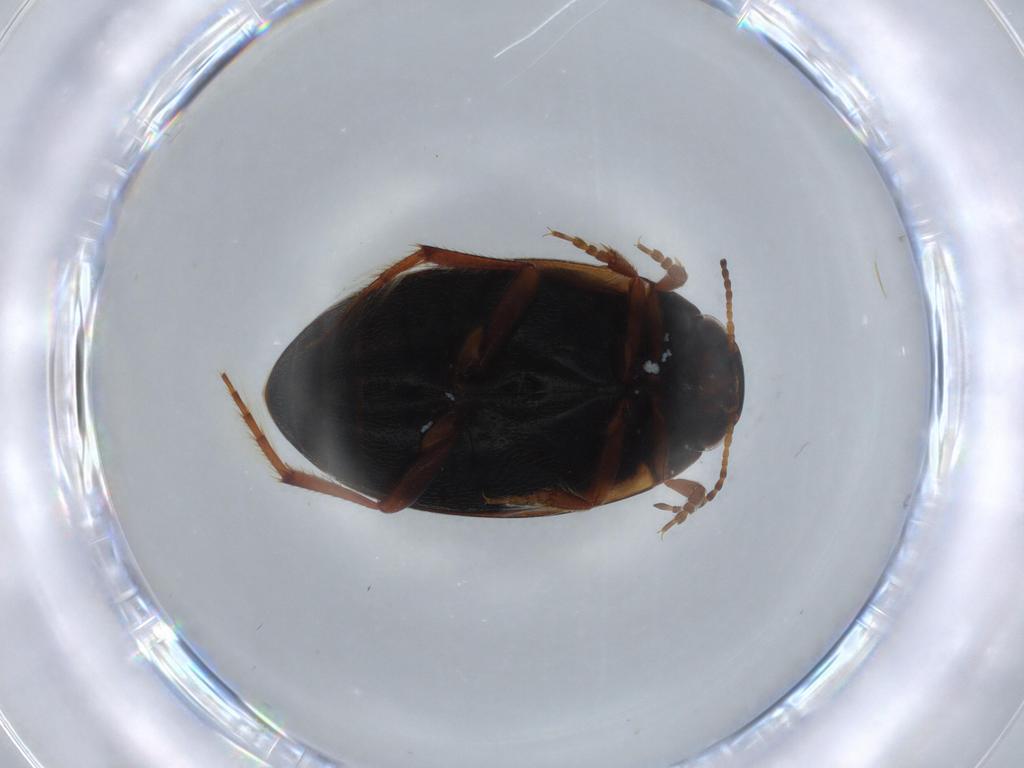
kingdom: Animalia
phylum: Arthropoda
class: Insecta
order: Coleoptera
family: Dytiscidae
